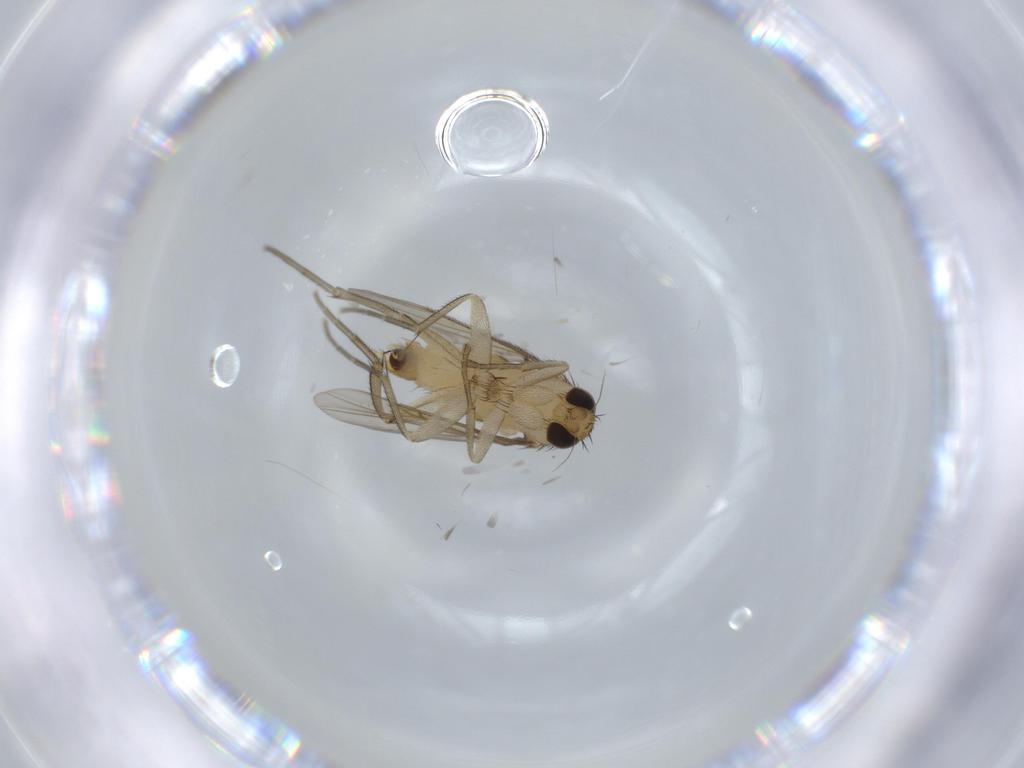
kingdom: Animalia
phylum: Arthropoda
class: Insecta
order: Diptera
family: Phoridae
